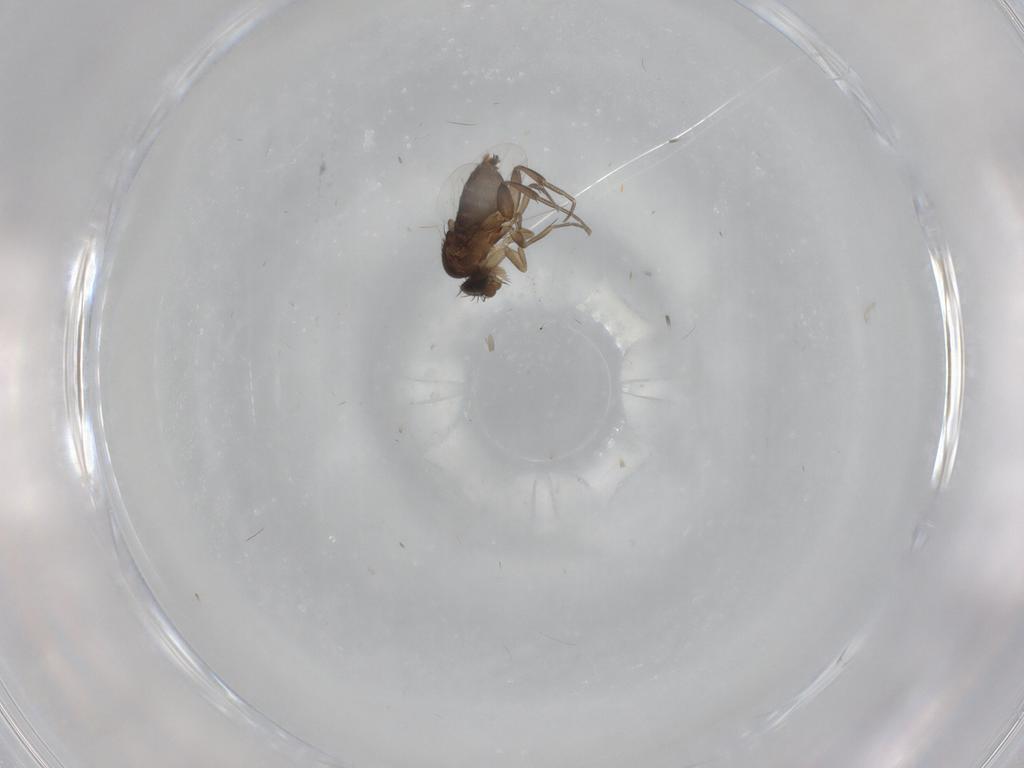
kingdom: Animalia
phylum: Arthropoda
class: Insecta
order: Diptera
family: Phoridae
